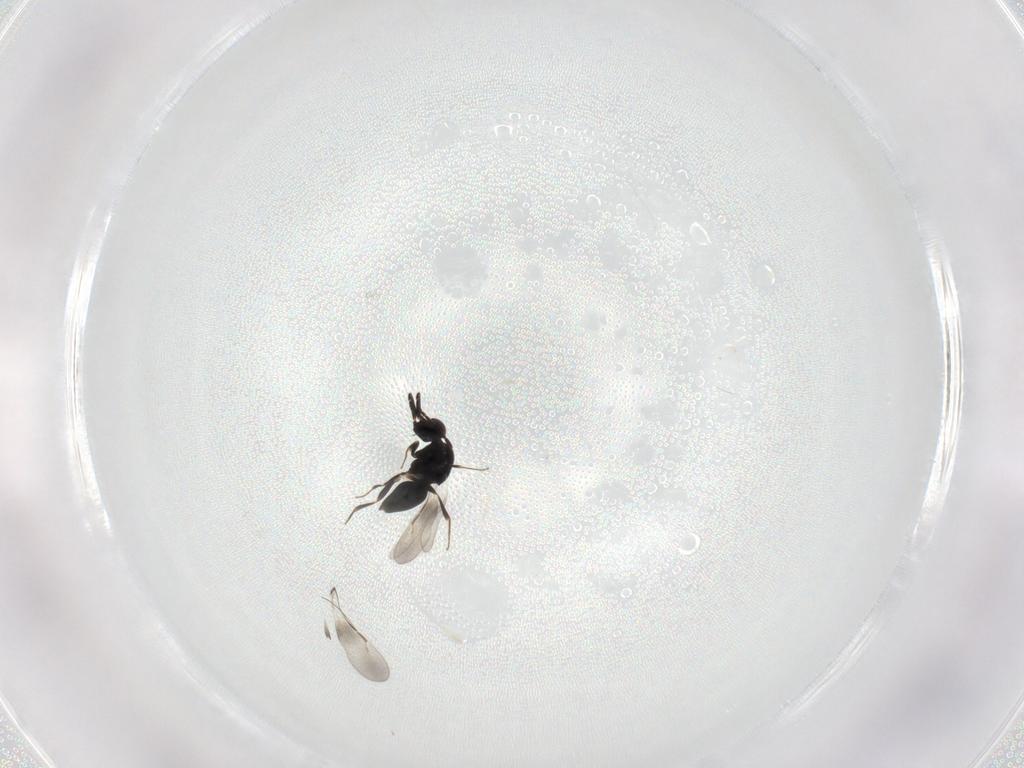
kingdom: Animalia
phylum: Arthropoda
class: Insecta
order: Hymenoptera
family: Ceraphronidae
